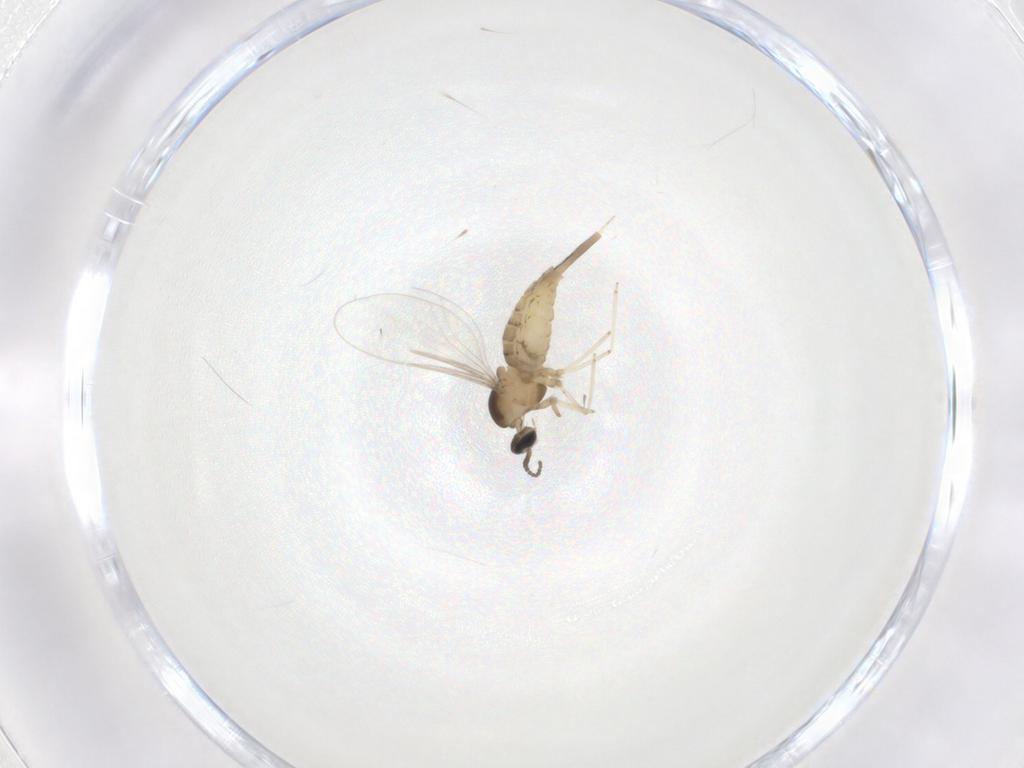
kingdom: Animalia
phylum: Arthropoda
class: Insecta
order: Diptera
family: Cecidomyiidae
